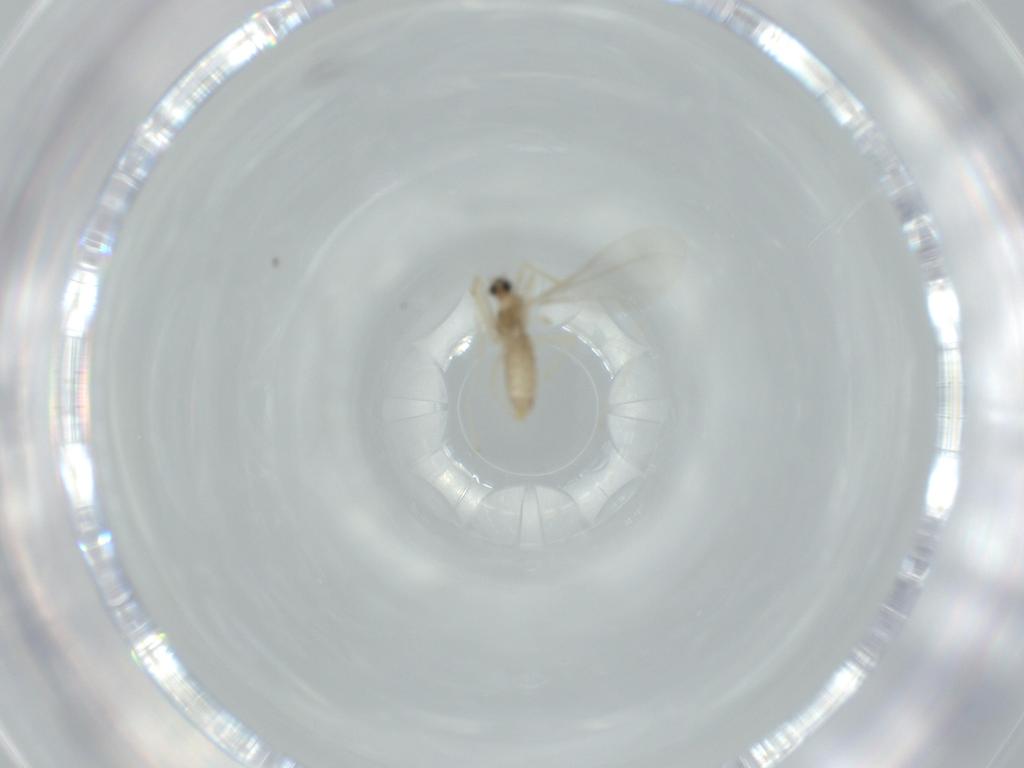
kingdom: Animalia
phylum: Arthropoda
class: Insecta
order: Diptera
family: Cecidomyiidae
